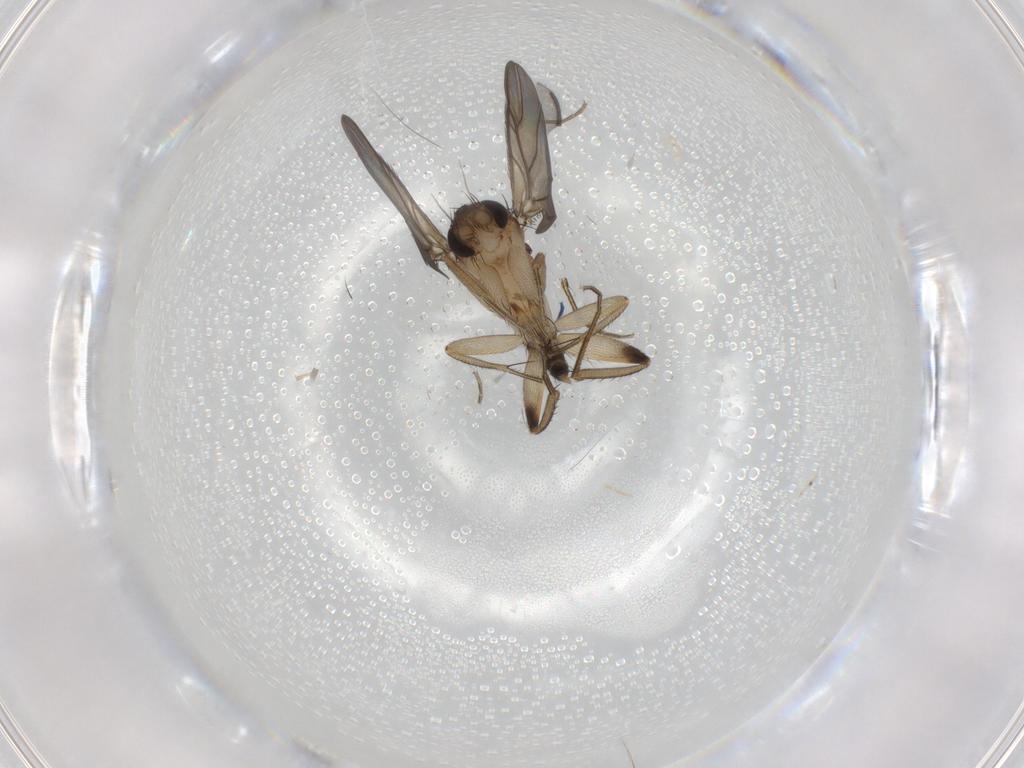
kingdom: Animalia
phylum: Arthropoda
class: Insecta
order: Diptera
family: Phoridae
